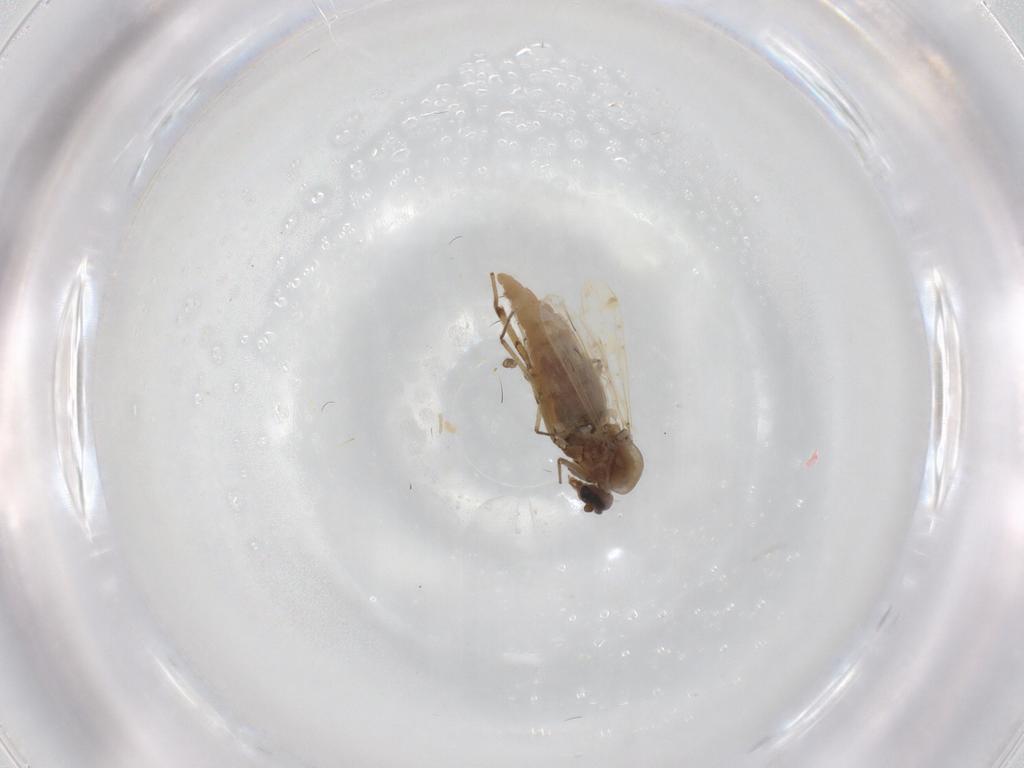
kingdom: Animalia
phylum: Arthropoda
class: Insecta
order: Diptera
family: Sarcophagidae
